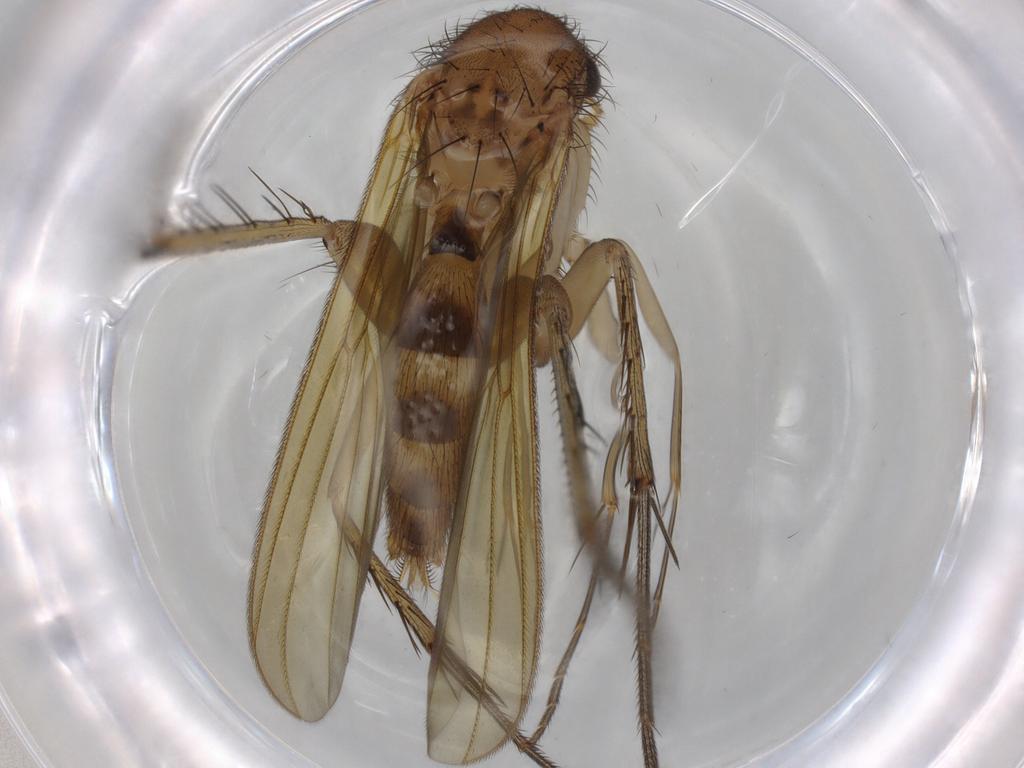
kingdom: Animalia
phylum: Arthropoda
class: Insecta
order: Diptera
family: Mycetophilidae
